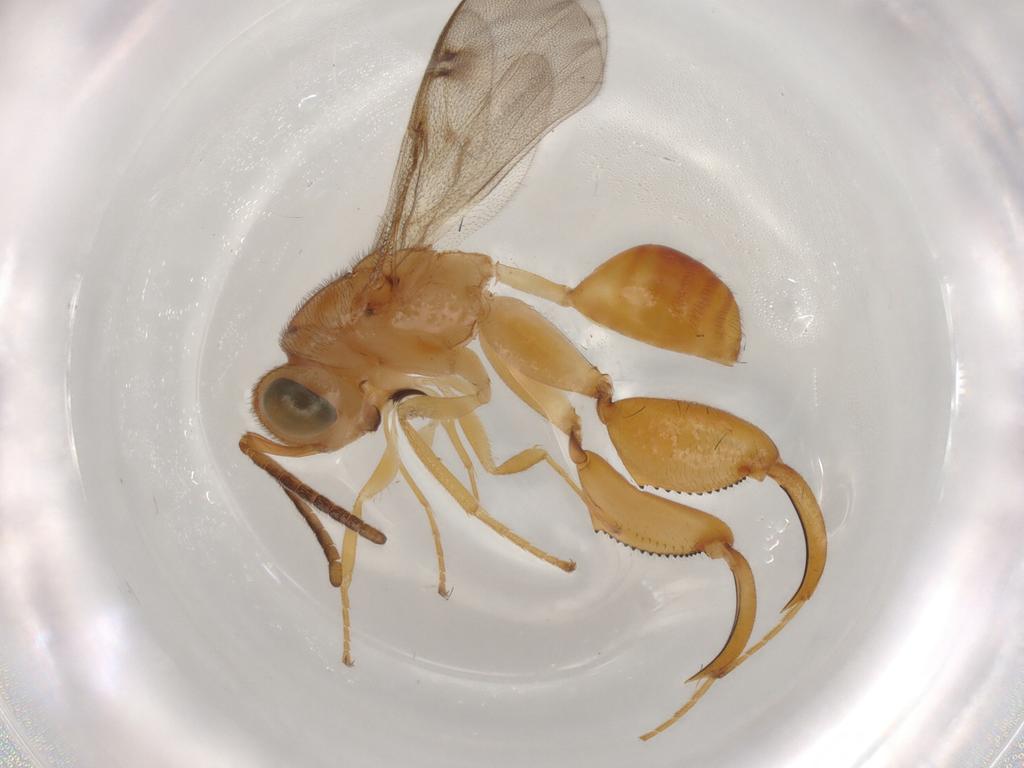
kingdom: Animalia
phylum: Arthropoda
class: Insecta
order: Hymenoptera
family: Chalcididae
